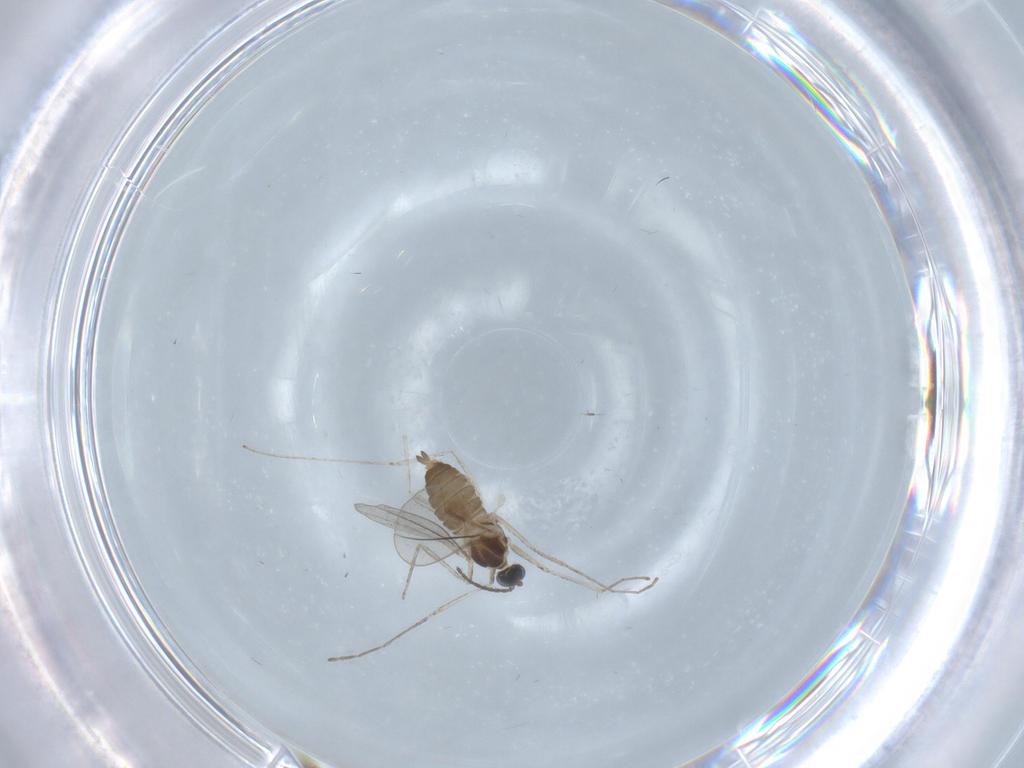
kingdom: Animalia
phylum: Arthropoda
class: Insecta
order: Diptera
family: Cecidomyiidae
